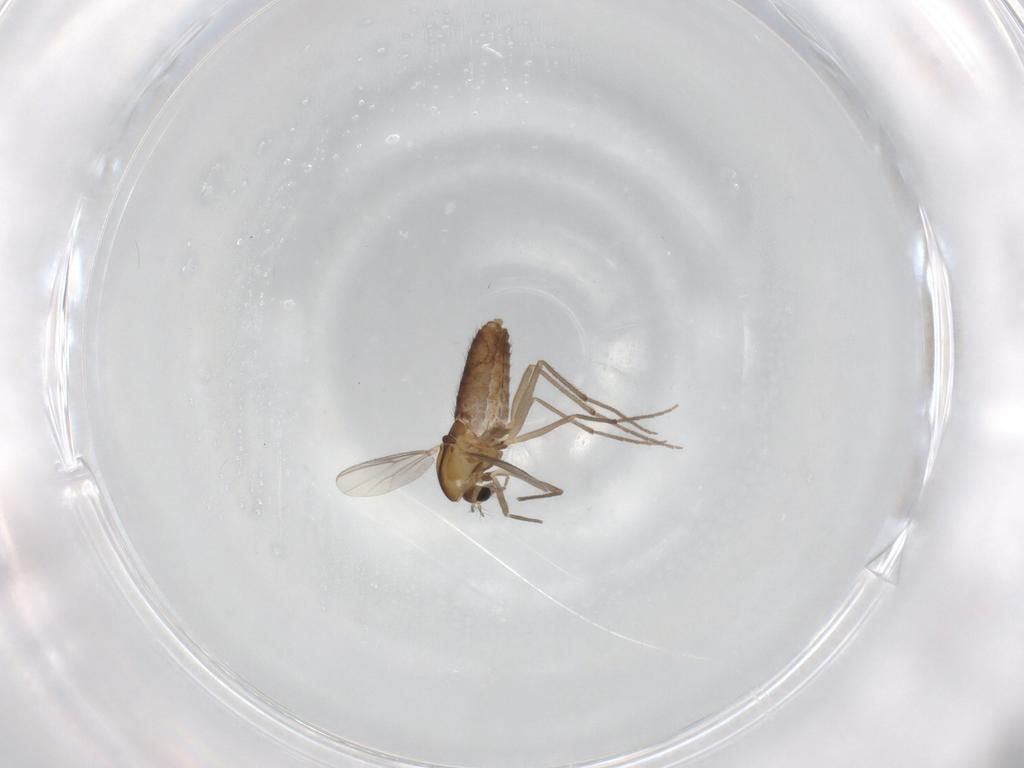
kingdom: Animalia
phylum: Arthropoda
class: Insecta
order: Diptera
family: Chironomidae
